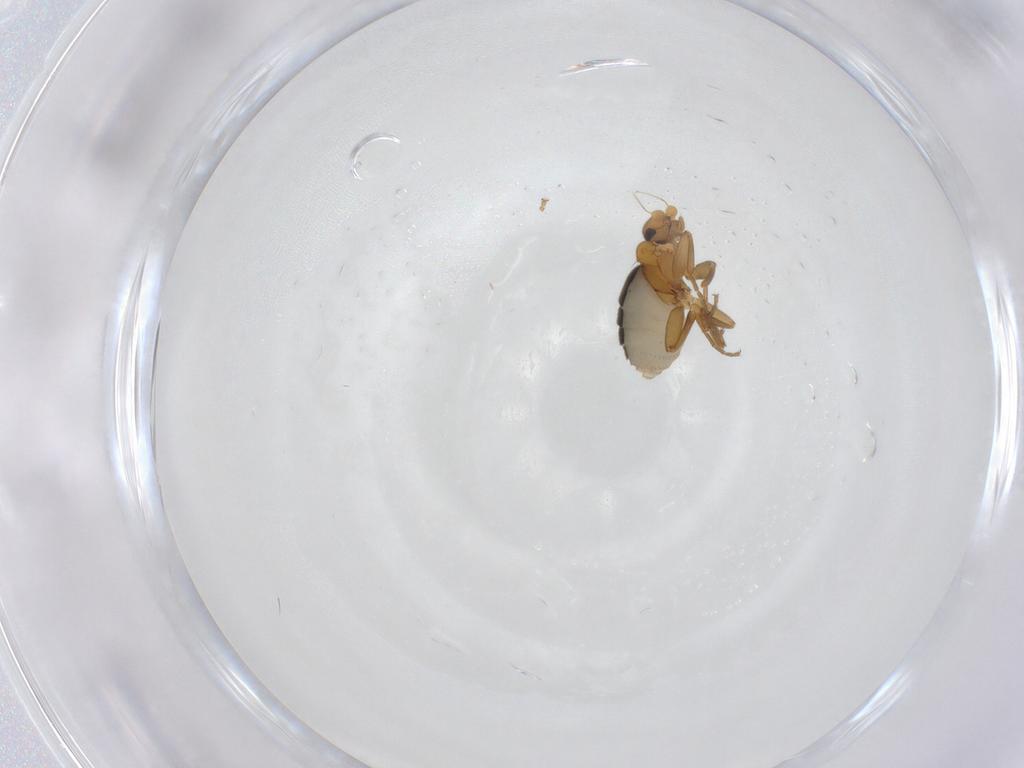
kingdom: Animalia
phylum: Arthropoda
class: Insecta
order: Diptera
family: Phoridae
